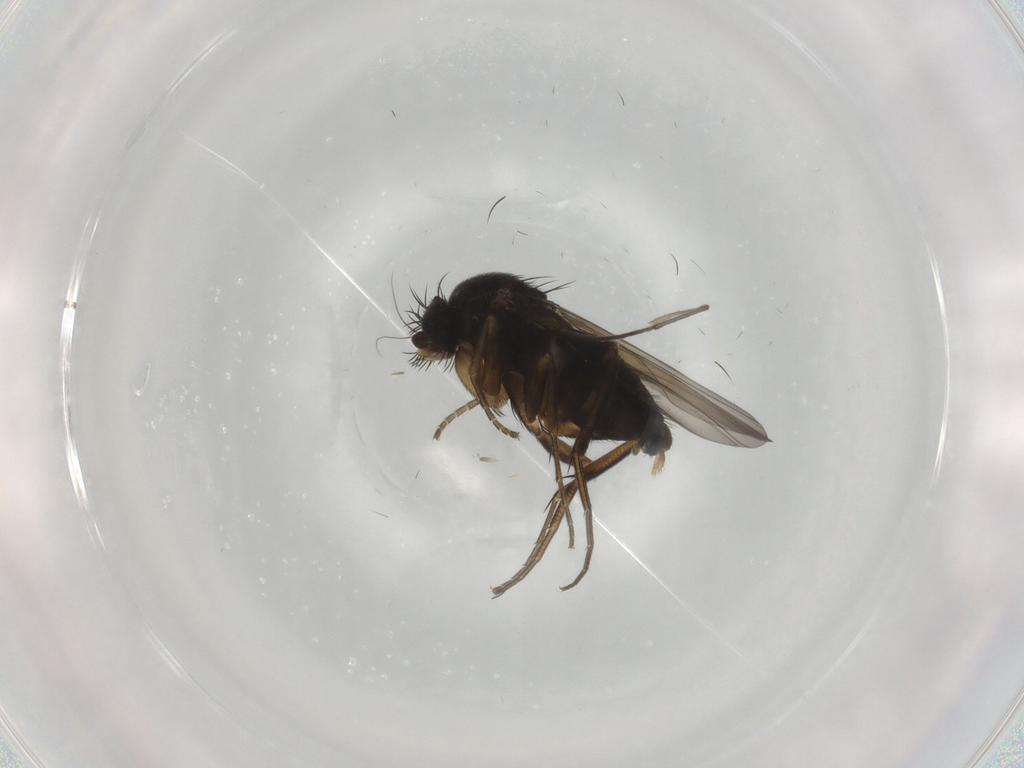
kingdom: Animalia
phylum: Arthropoda
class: Insecta
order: Diptera
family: Phoridae
